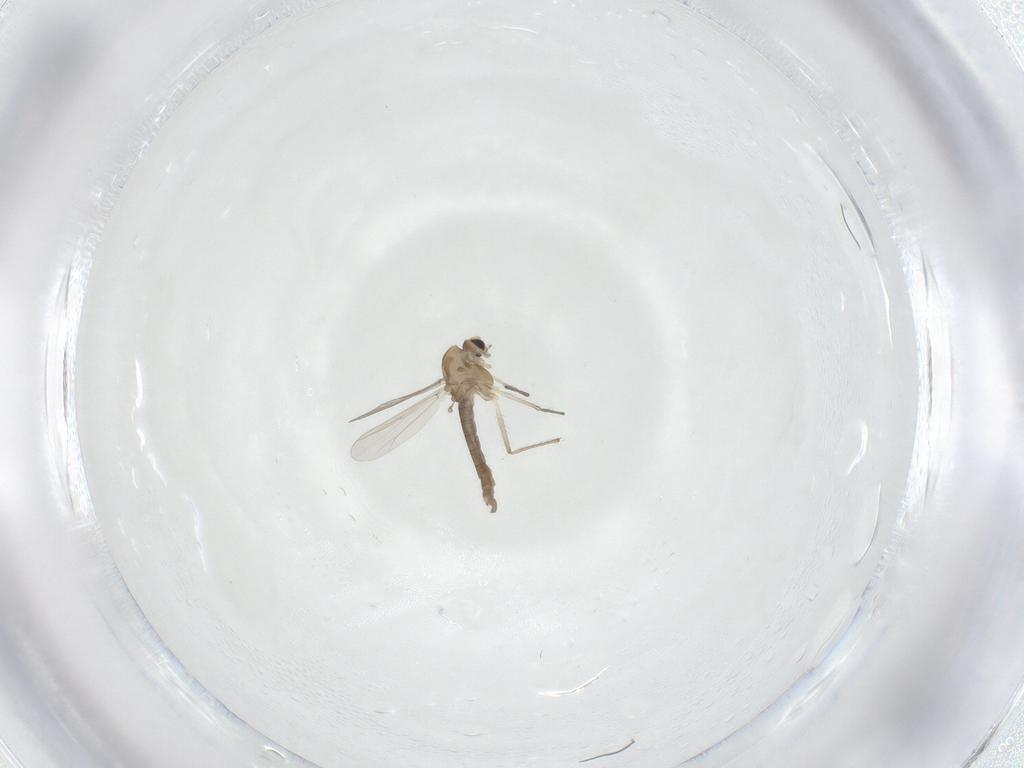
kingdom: Animalia
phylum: Arthropoda
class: Insecta
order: Diptera
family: Chironomidae
